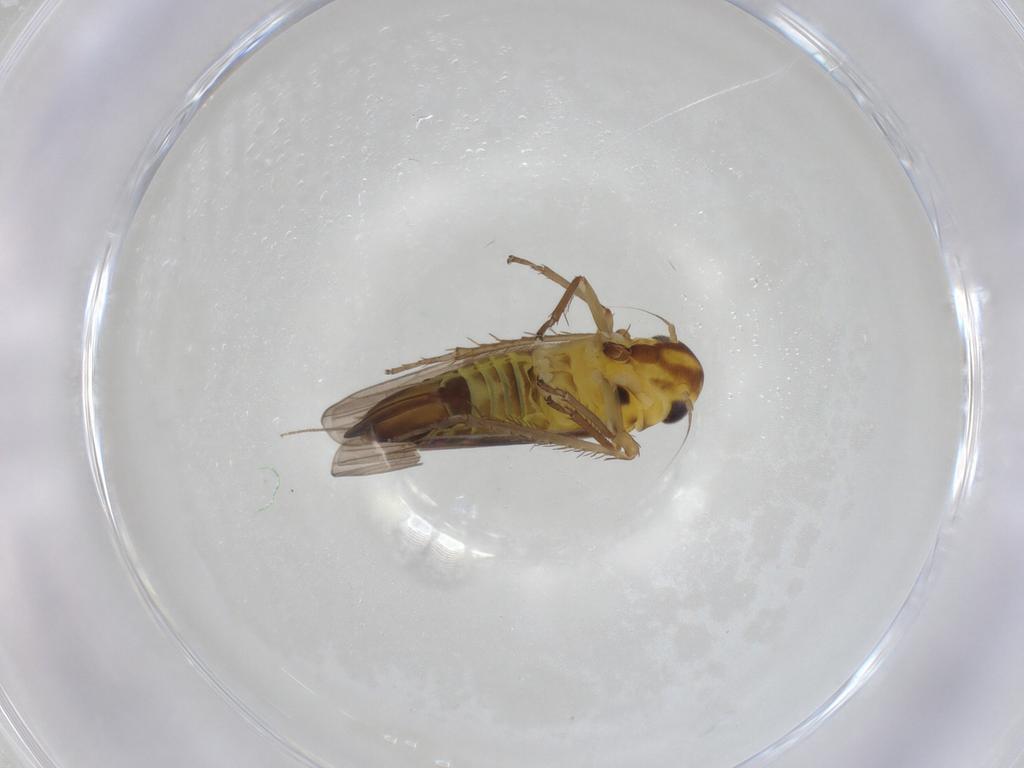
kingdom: Animalia
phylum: Arthropoda
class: Insecta
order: Hemiptera
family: Cicadellidae
